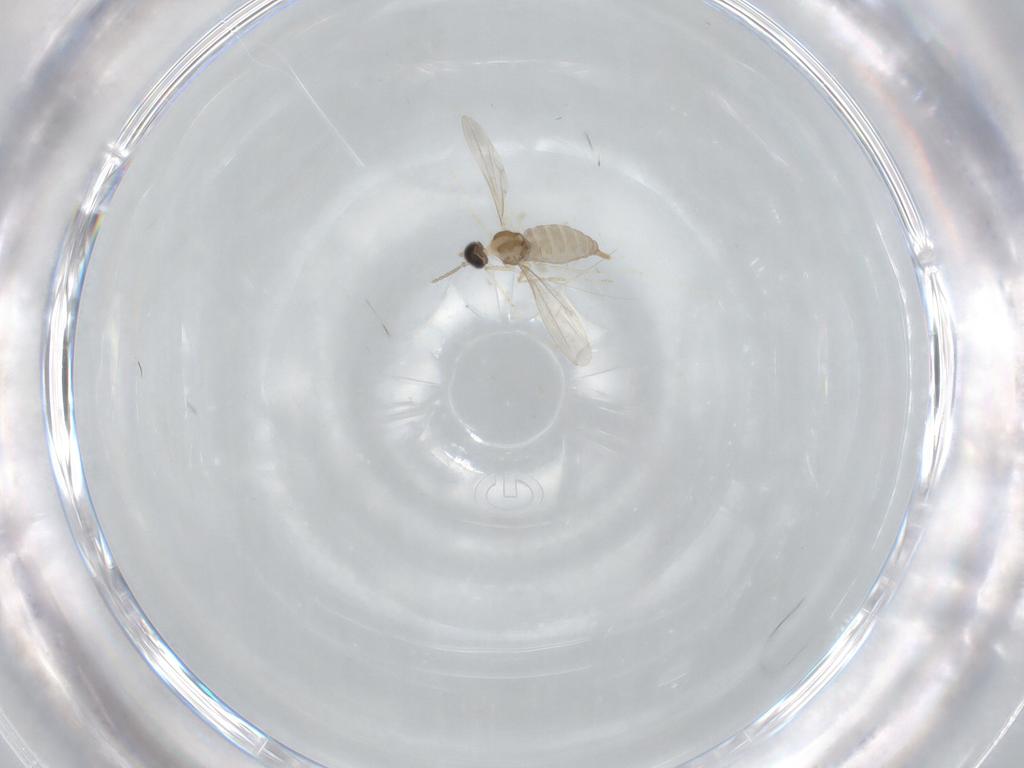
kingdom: Animalia
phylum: Arthropoda
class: Insecta
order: Diptera
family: Cecidomyiidae
